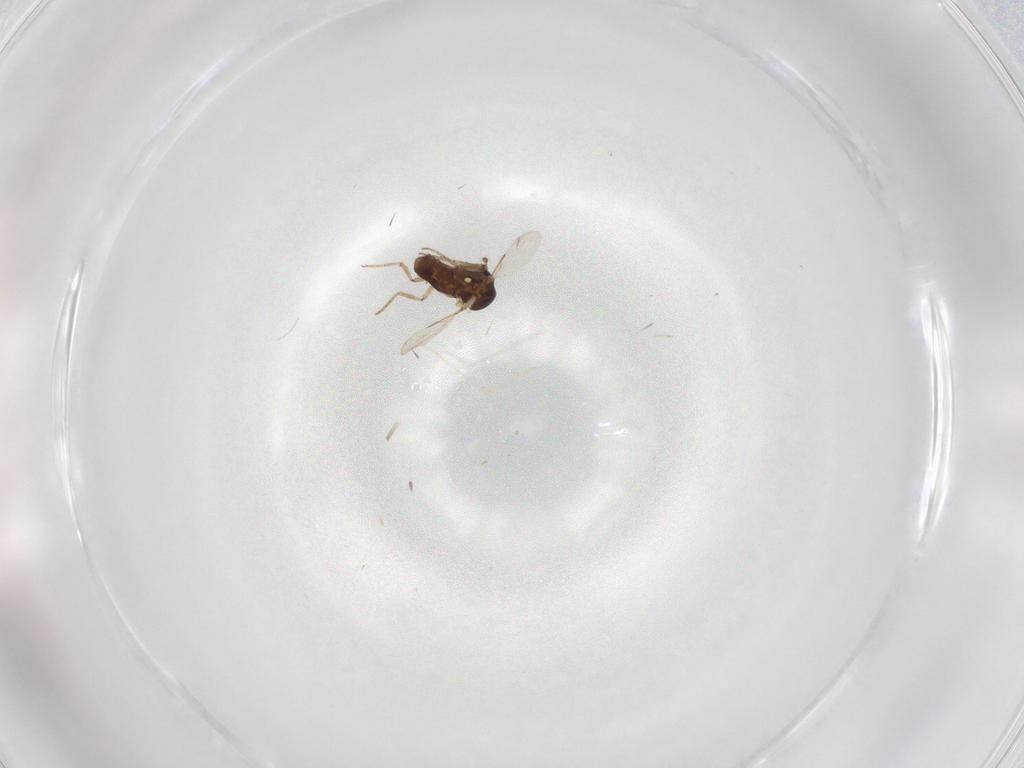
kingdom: Animalia
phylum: Arthropoda
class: Insecta
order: Diptera
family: Ceratopogonidae
